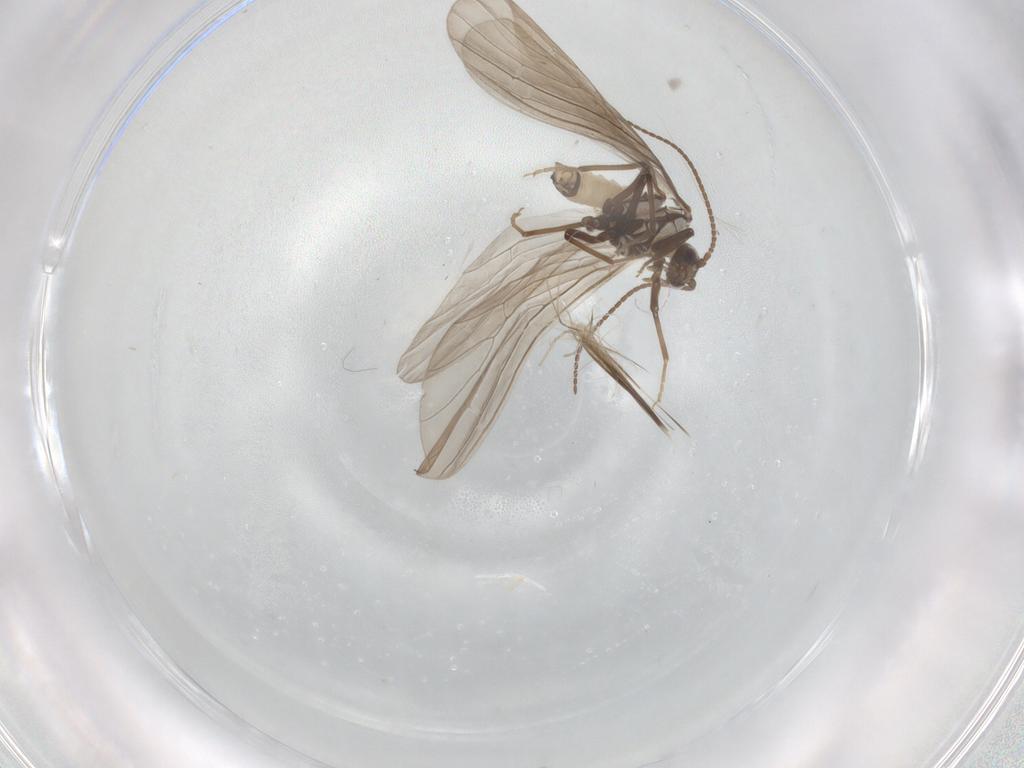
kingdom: Animalia
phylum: Arthropoda
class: Insecta
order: Neuroptera
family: Coniopterygidae
